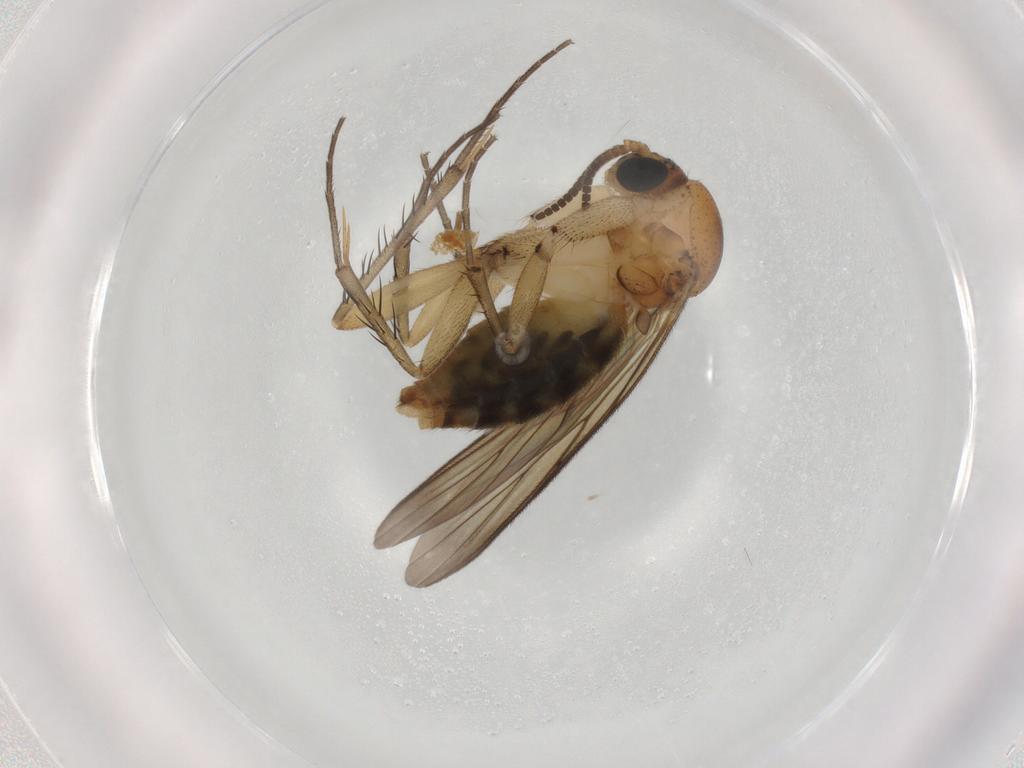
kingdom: Animalia
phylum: Arthropoda
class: Insecta
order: Diptera
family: Mycetophilidae
